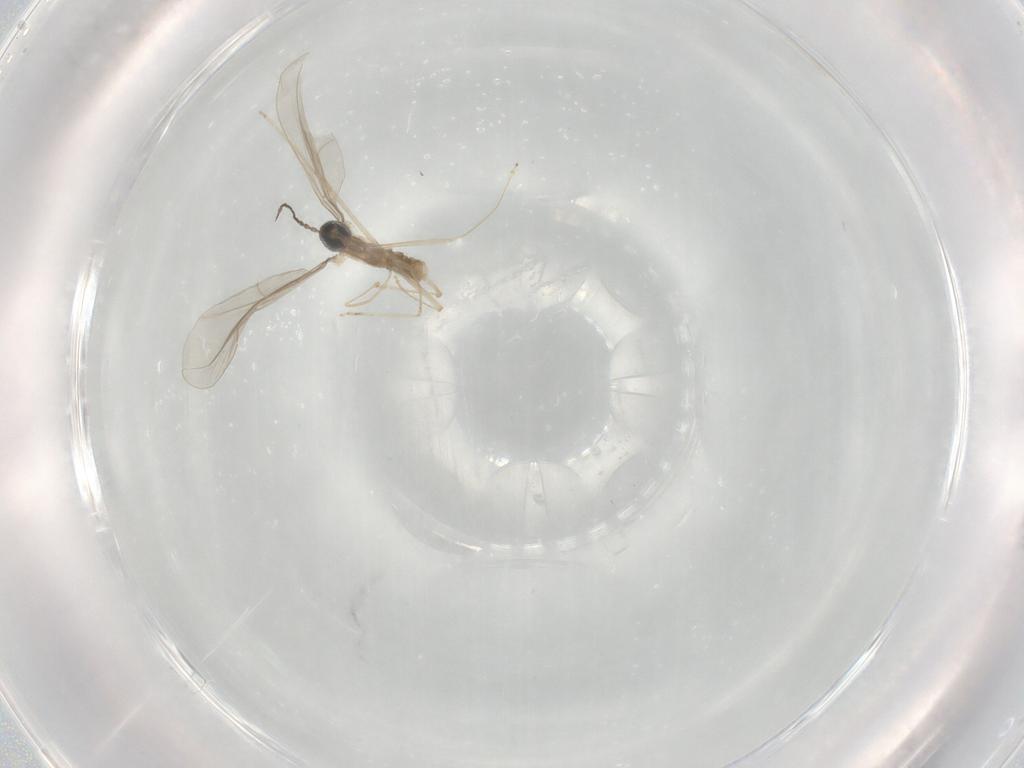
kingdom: Animalia
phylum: Arthropoda
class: Insecta
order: Diptera
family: Cecidomyiidae
